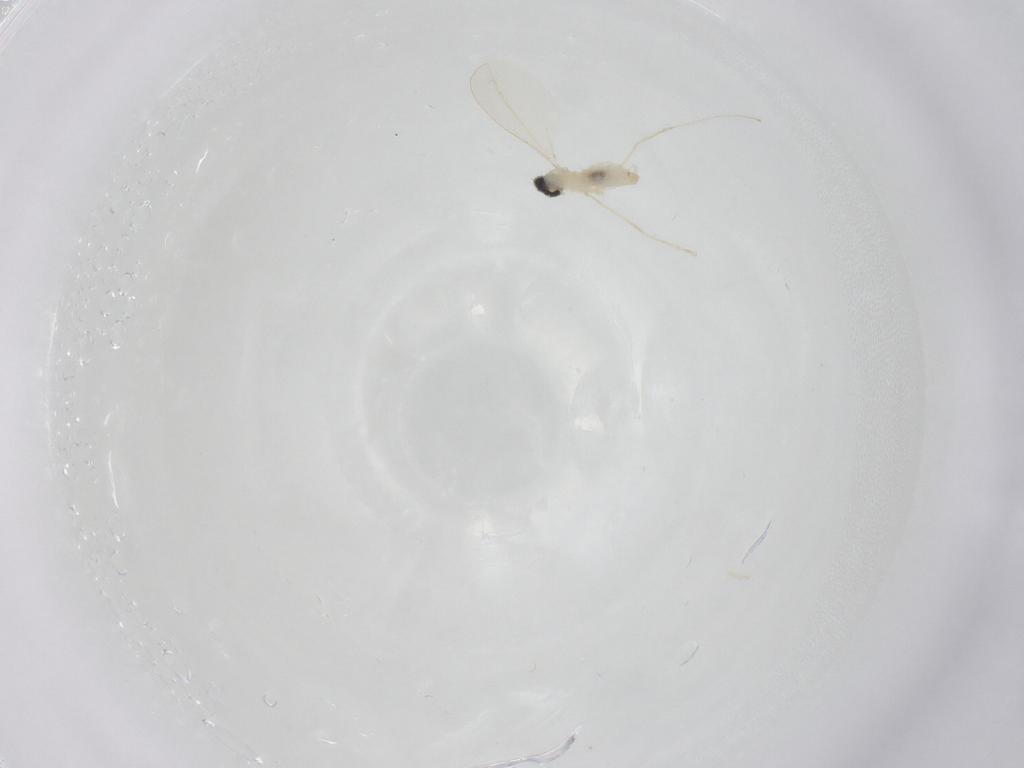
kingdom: Animalia
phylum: Arthropoda
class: Insecta
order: Diptera
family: Cecidomyiidae
